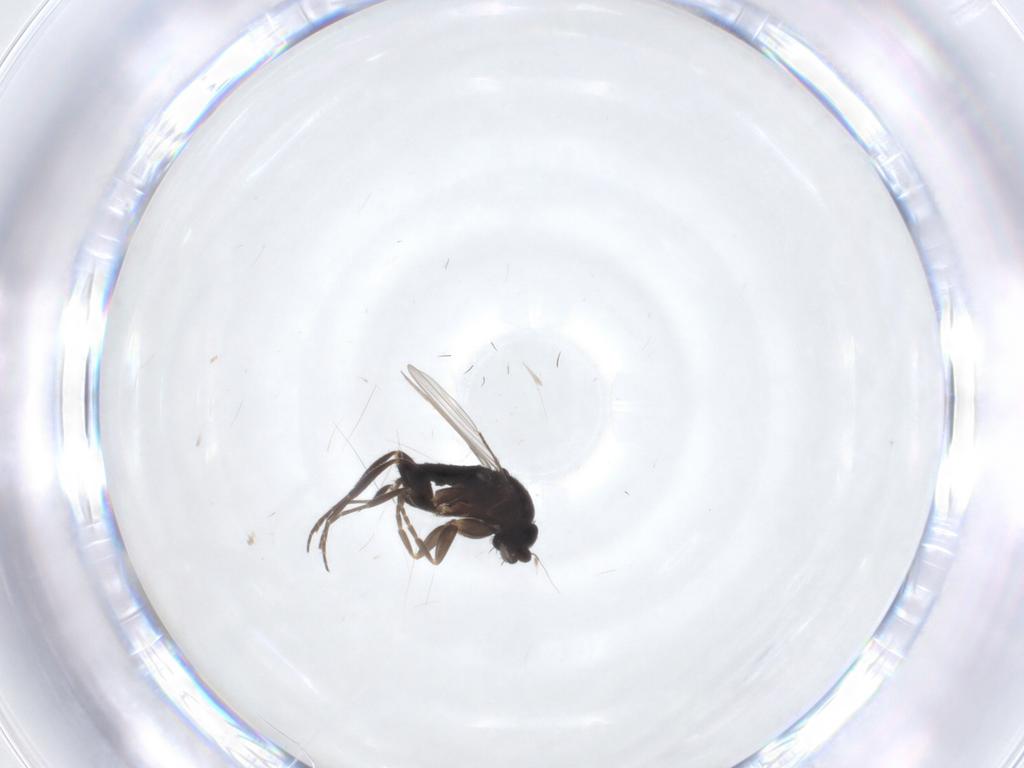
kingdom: Animalia
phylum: Arthropoda
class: Insecta
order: Diptera
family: Phoridae
